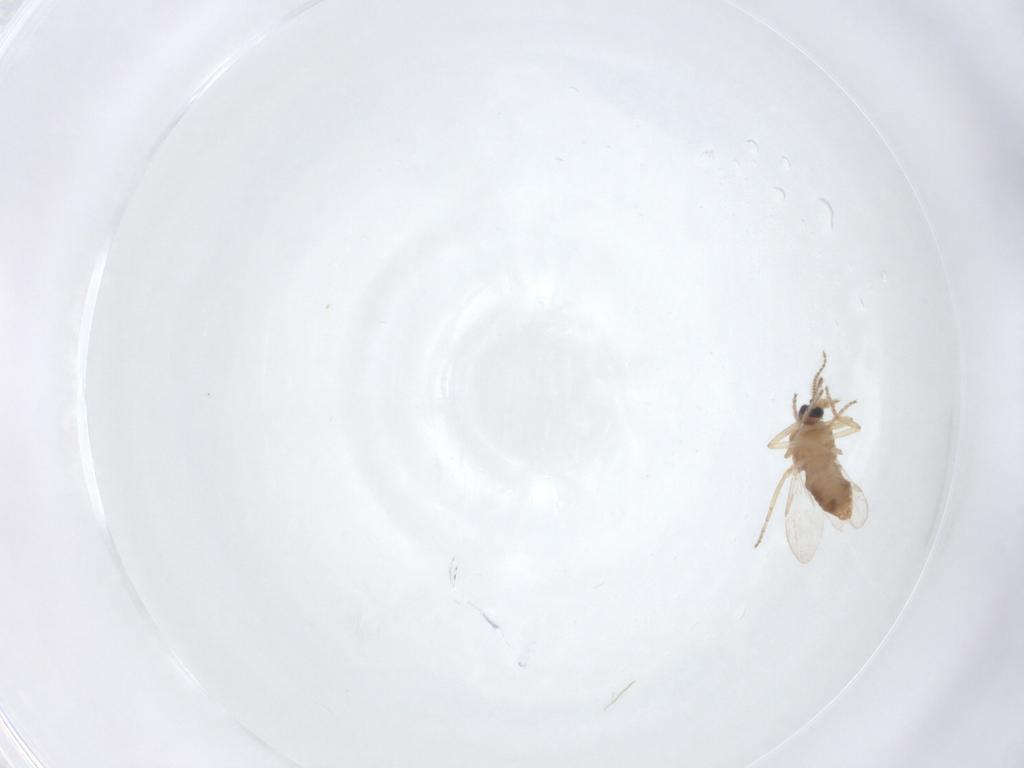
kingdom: Animalia
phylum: Arthropoda
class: Insecta
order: Diptera
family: Ceratopogonidae
